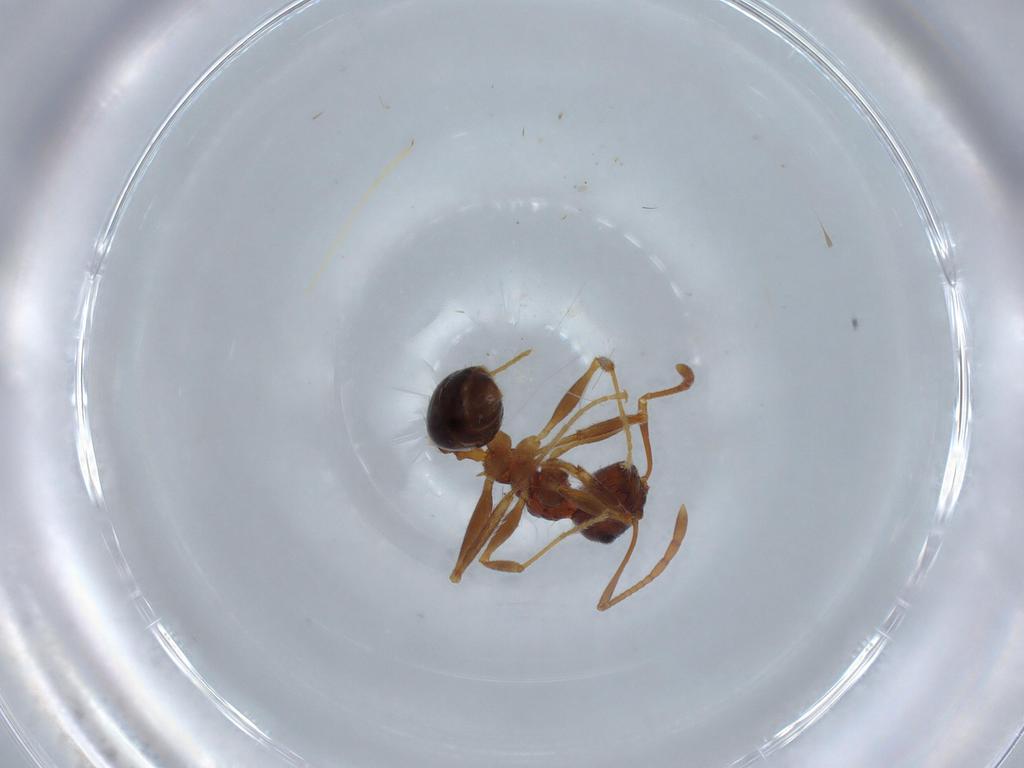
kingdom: Animalia
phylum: Arthropoda
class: Insecta
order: Hymenoptera
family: Formicidae
